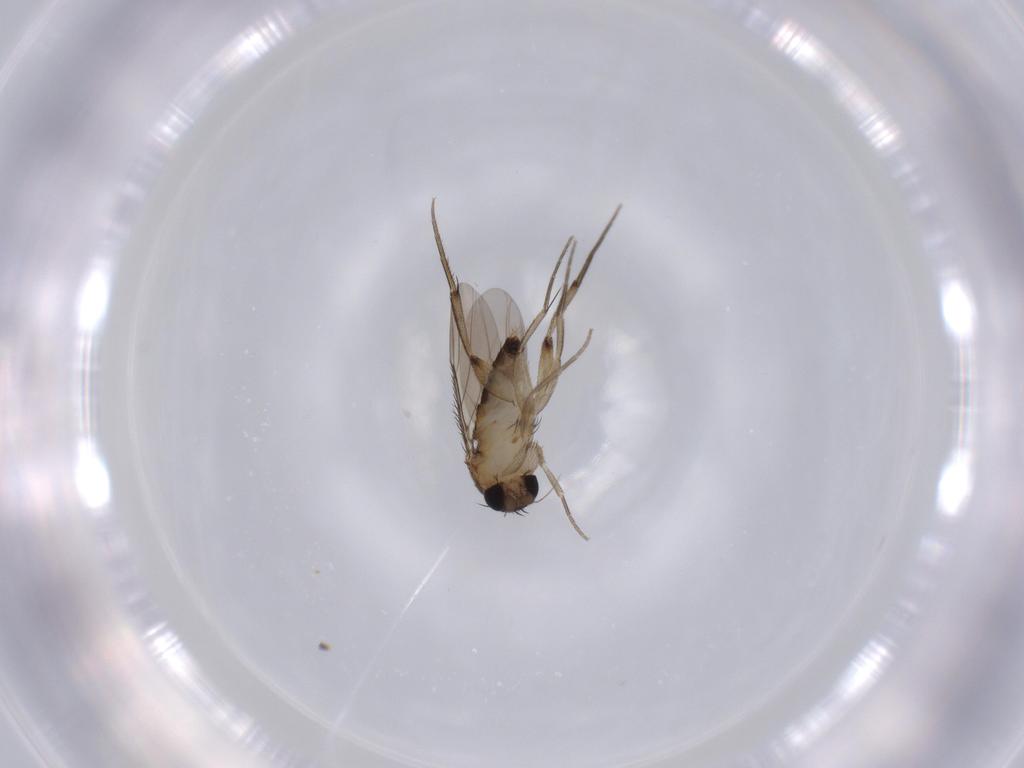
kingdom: Animalia
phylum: Arthropoda
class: Insecta
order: Diptera
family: Phoridae
